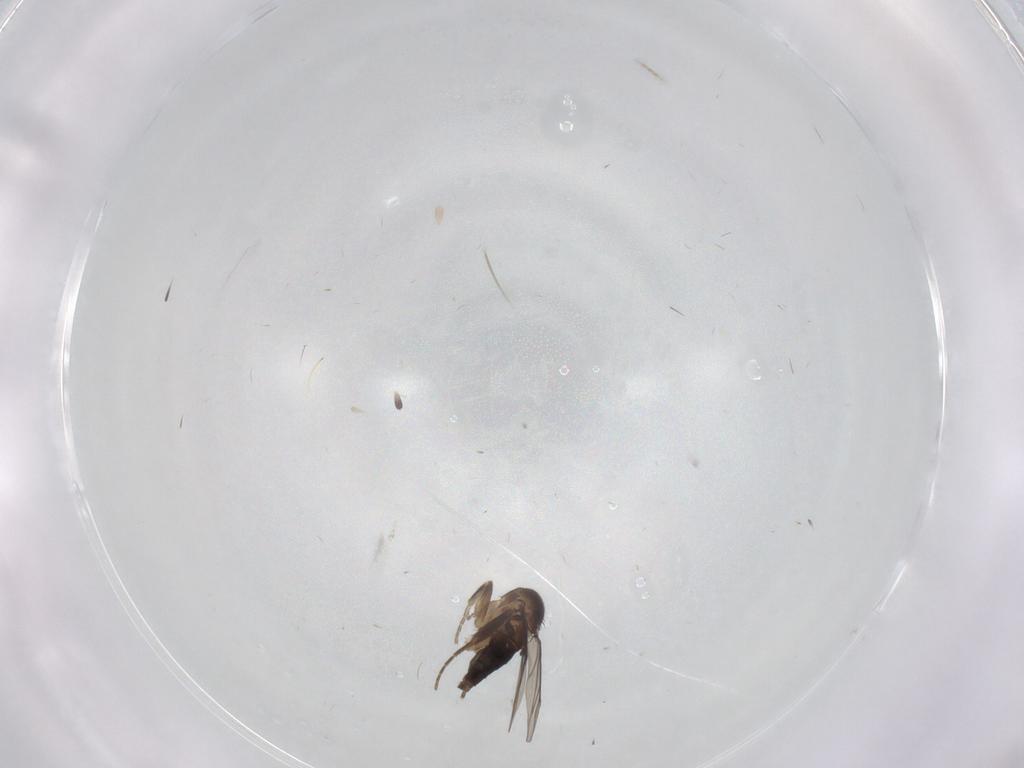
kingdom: Animalia
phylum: Arthropoda
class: Insecta
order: Diptera
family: Phoridae
